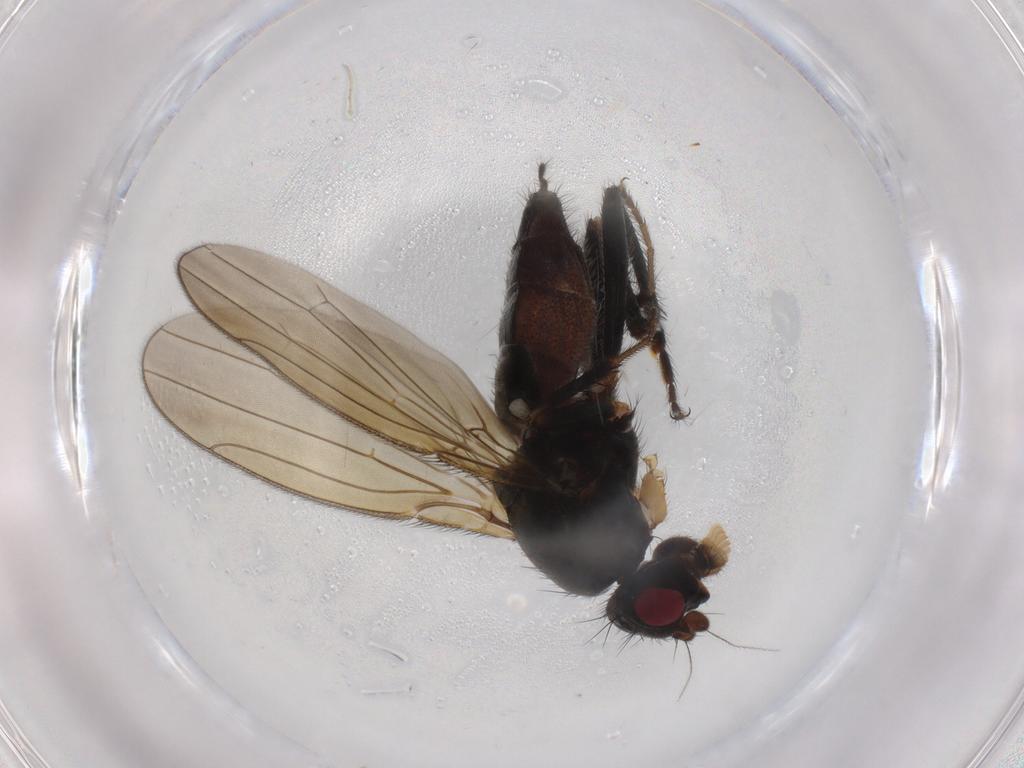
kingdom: Animalia
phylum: Arthropoda
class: Insecta
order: Diptera
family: Sphaeroceridae
